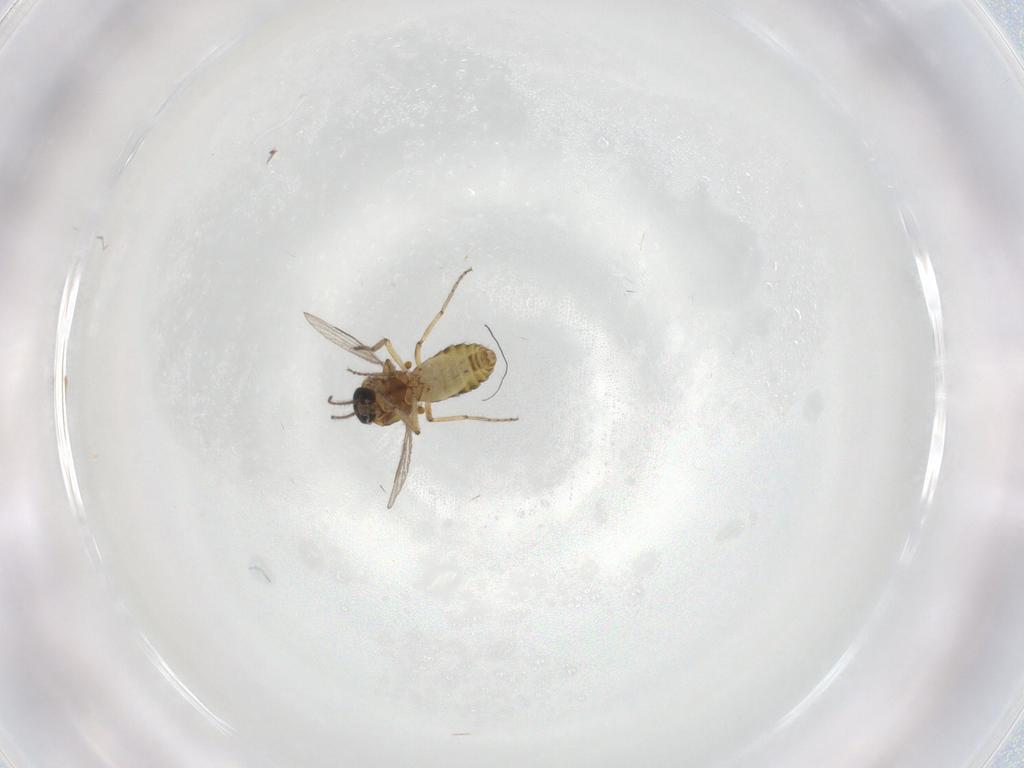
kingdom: Animalia
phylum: Arthropoda
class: Insecta
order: Diptera
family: Ceratopogonidae
